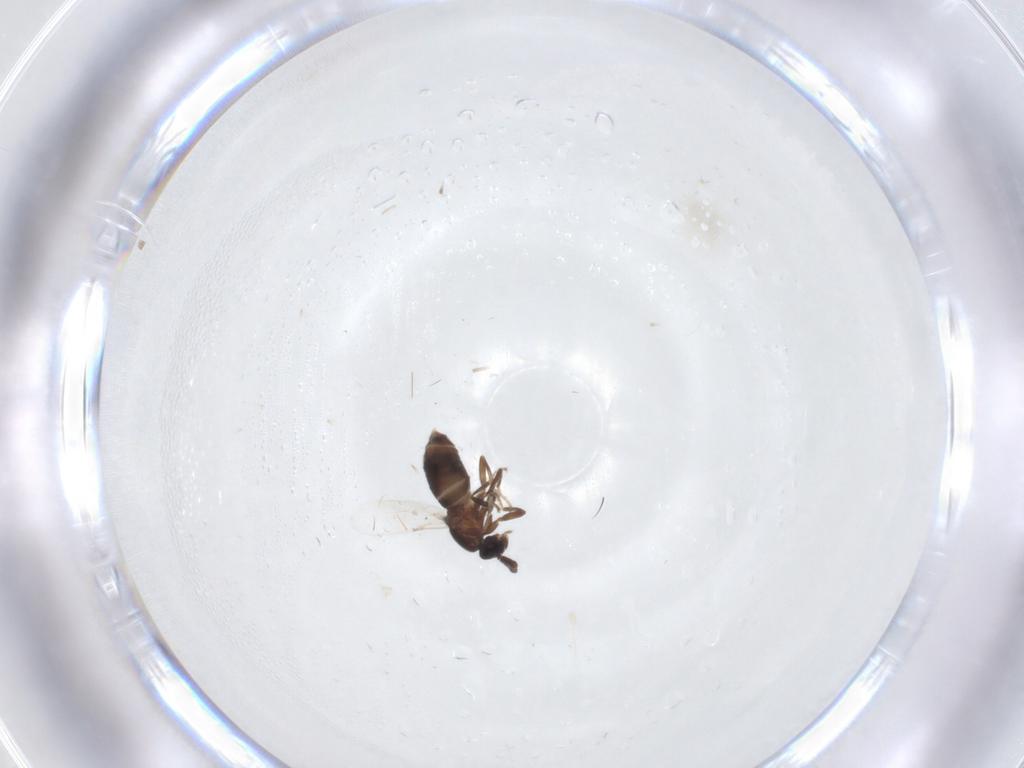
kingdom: Animalia
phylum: Arthropoda
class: Insecta
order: Diptera
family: Scatopsidae
